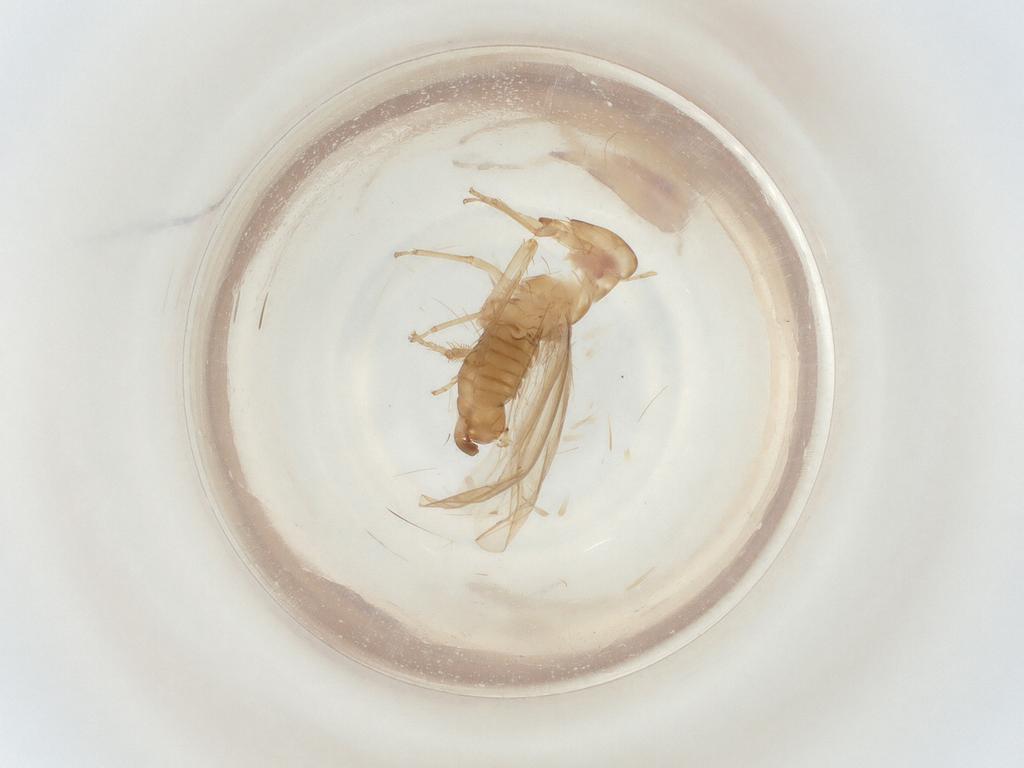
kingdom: Animalia
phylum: Arthropoda
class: Insecta
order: Hemiptera
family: Cicadellidae
